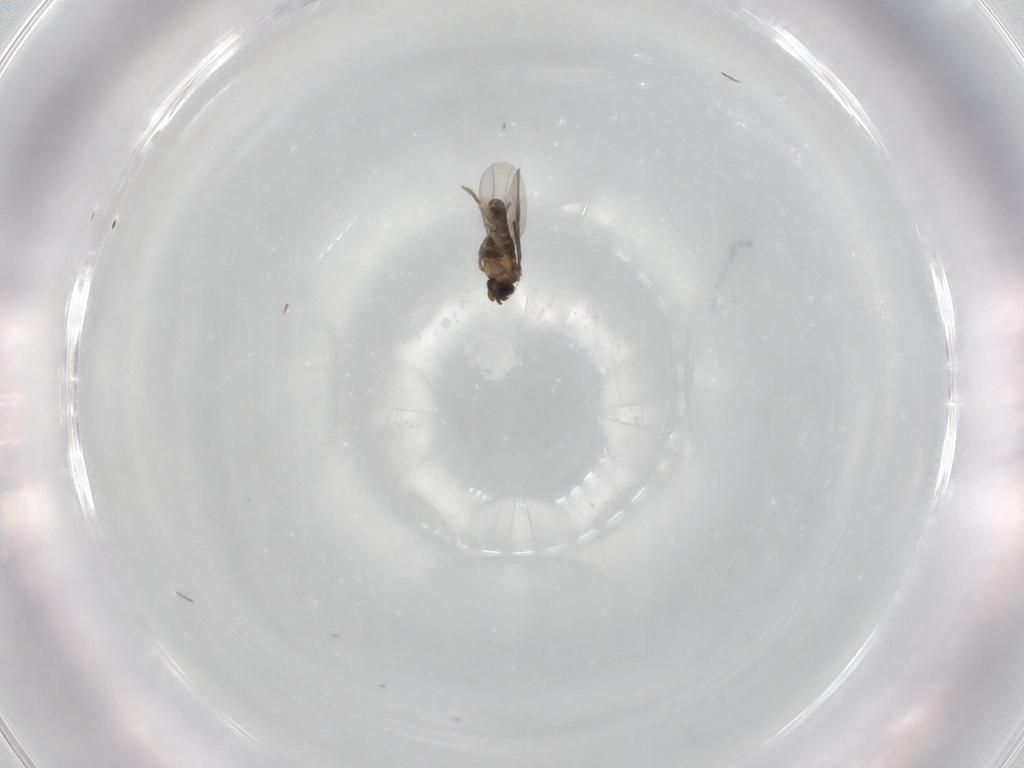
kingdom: Animalia
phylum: Arthropoda
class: Insecta
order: Diptera
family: Phoridae
